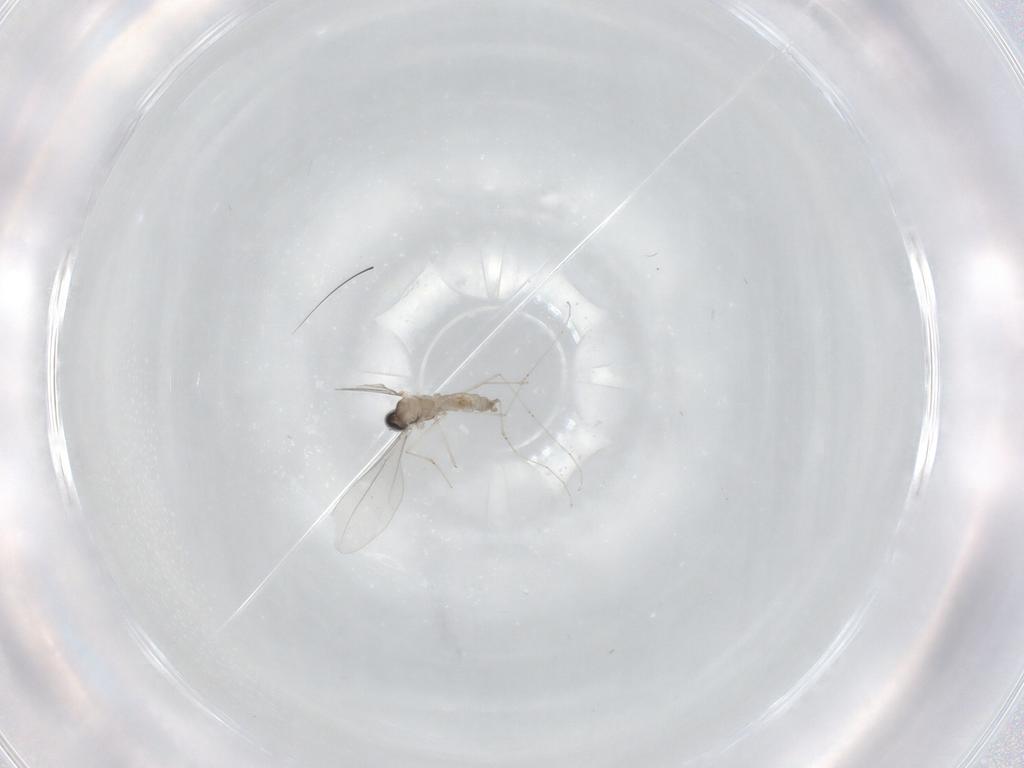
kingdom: Animalia
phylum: Arthropoda
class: Insecta
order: Diptera
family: Cecidomyiidae
